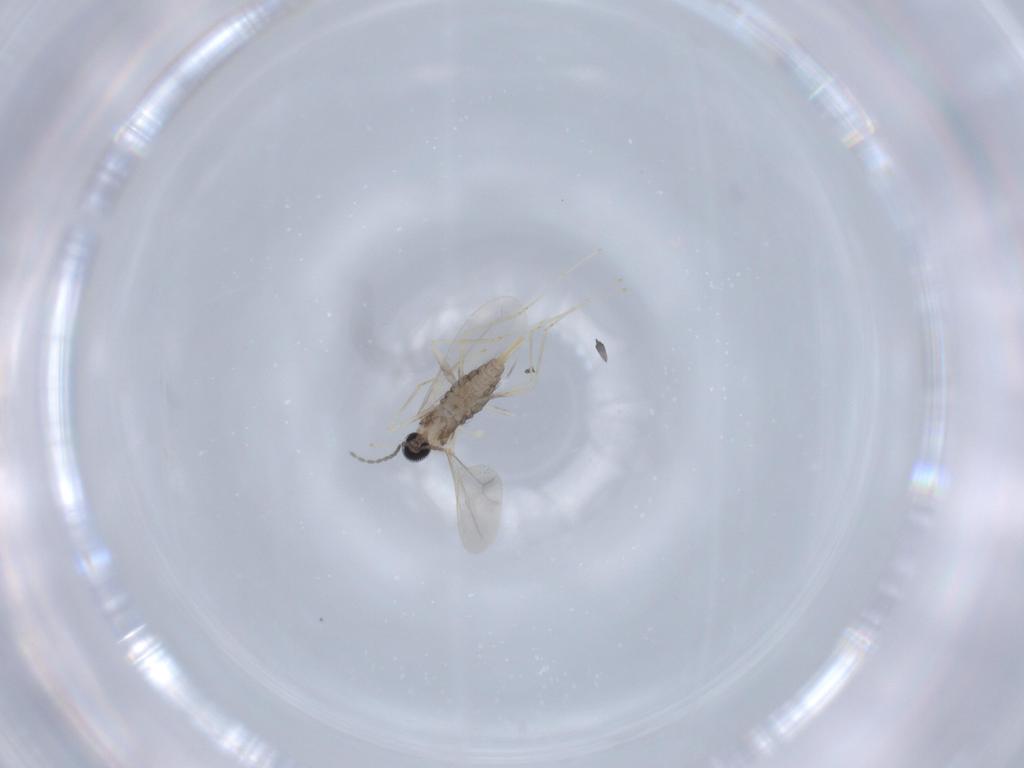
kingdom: Animalia
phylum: Arthropoda
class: Insecta
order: Diptera
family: Cecidomyiidae
